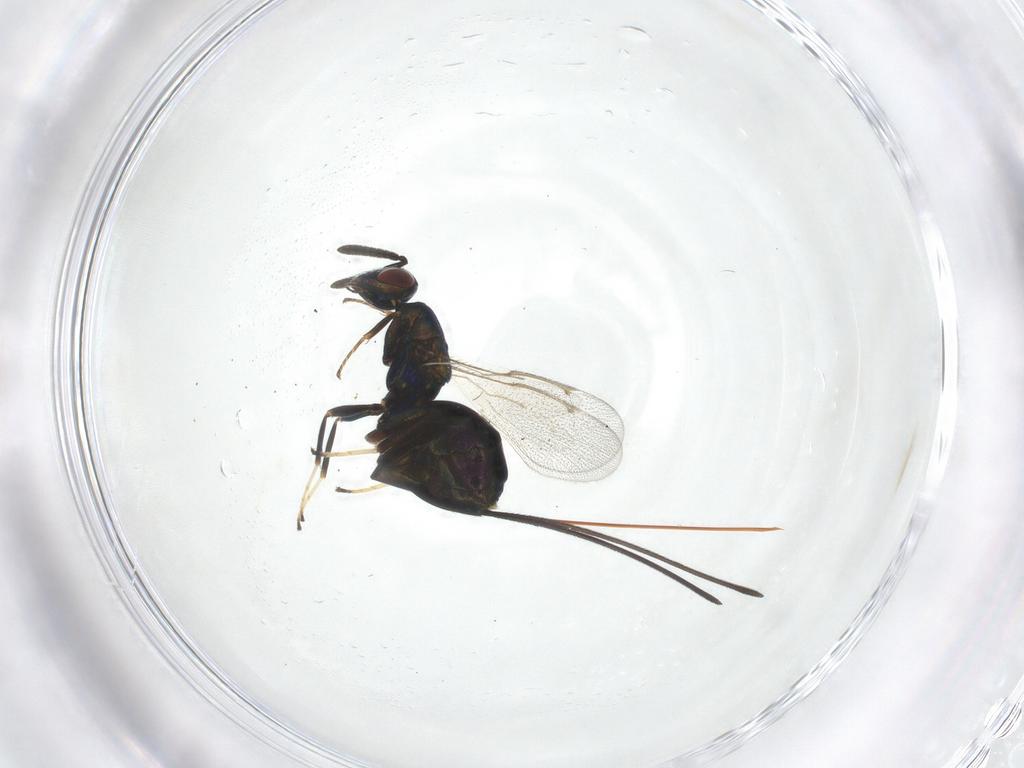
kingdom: Animalia
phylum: Arthropoda
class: Insecta
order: Hymenoptera
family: Torymidae
